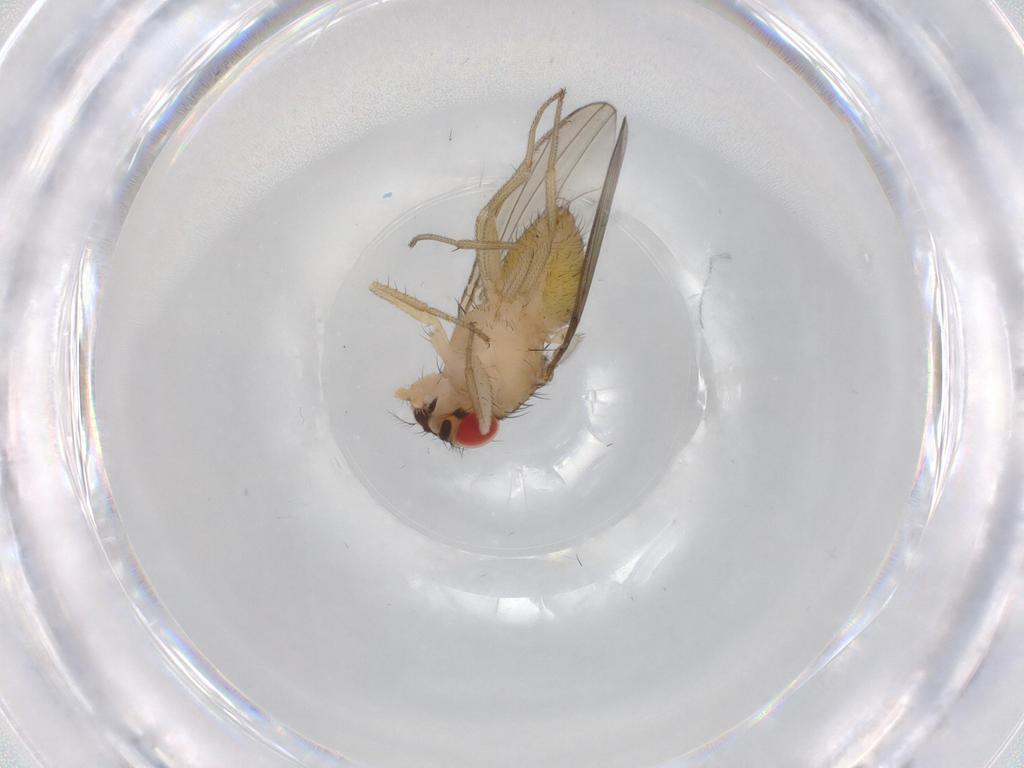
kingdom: Animalia
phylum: Arthropoda
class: Insecta
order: Diptera
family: Drosophilidae
